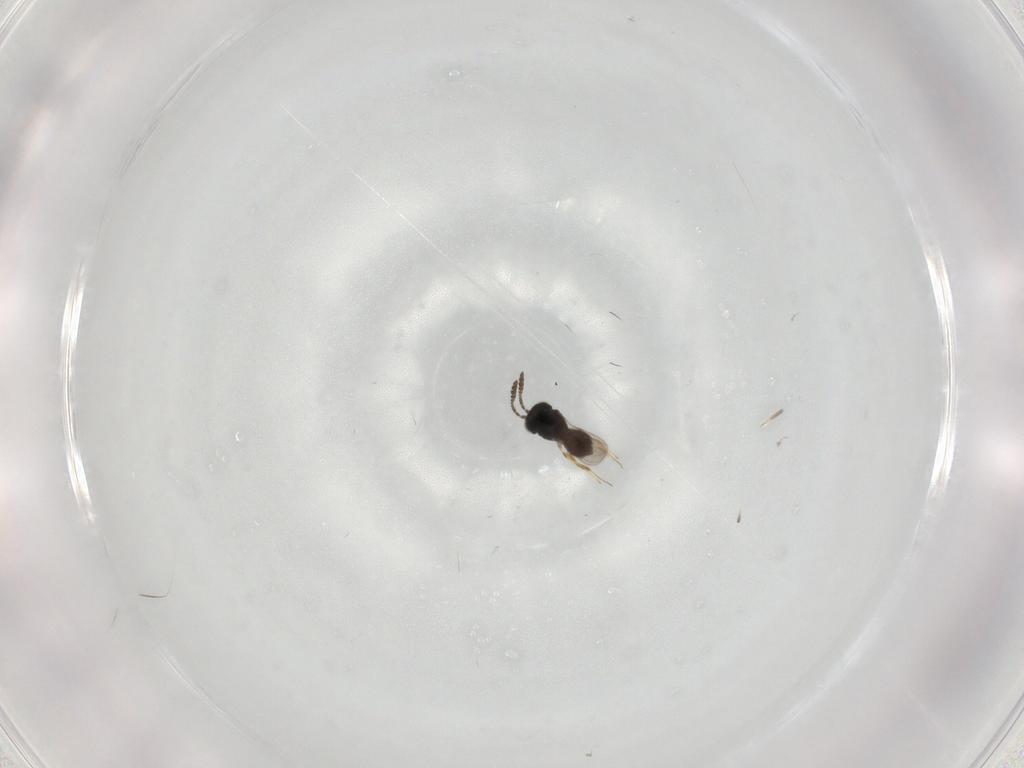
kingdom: Animalia
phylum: Arthropoda
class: Insecta
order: Hymenoptera
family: Scelionidae
